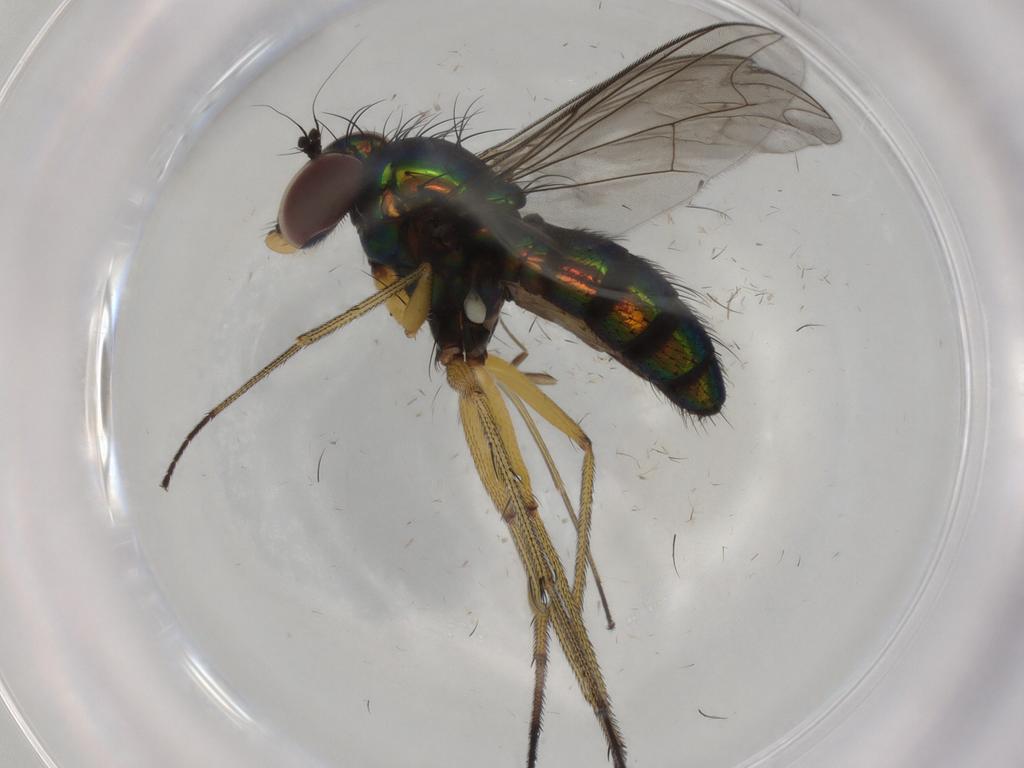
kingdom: Animalia
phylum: Arthropoda
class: Insecta
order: Diptera
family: Dolichopodidae
